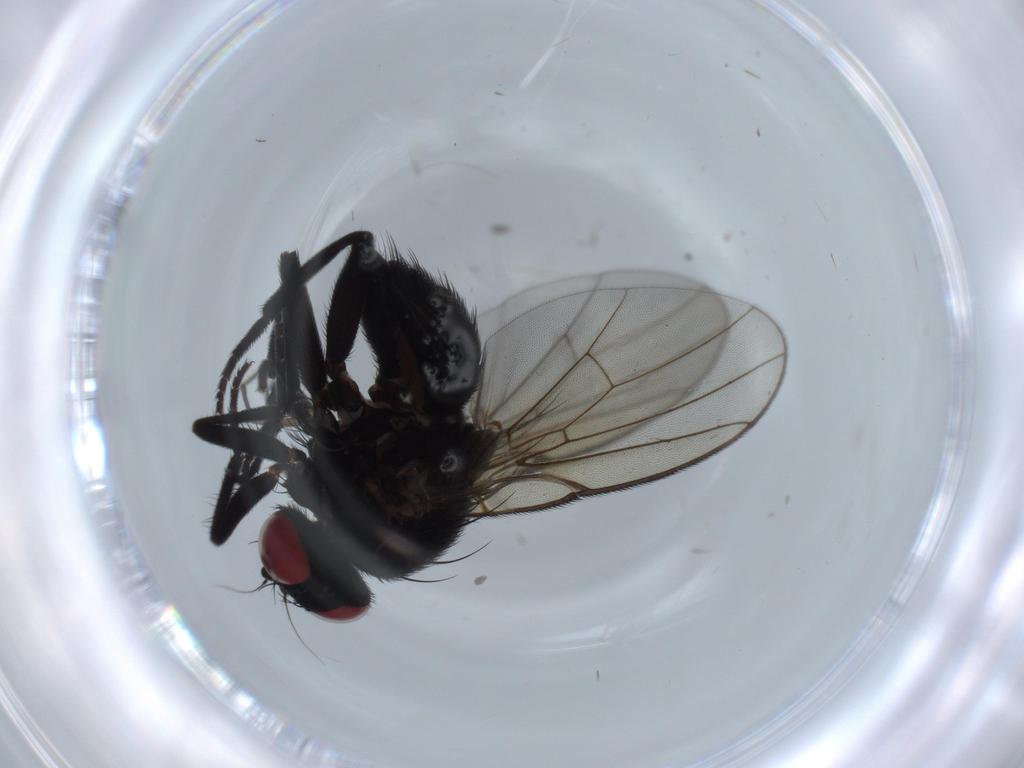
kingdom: Animalia
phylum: Arthropoda
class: Insecta
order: Diptera
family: Agromyzidae
